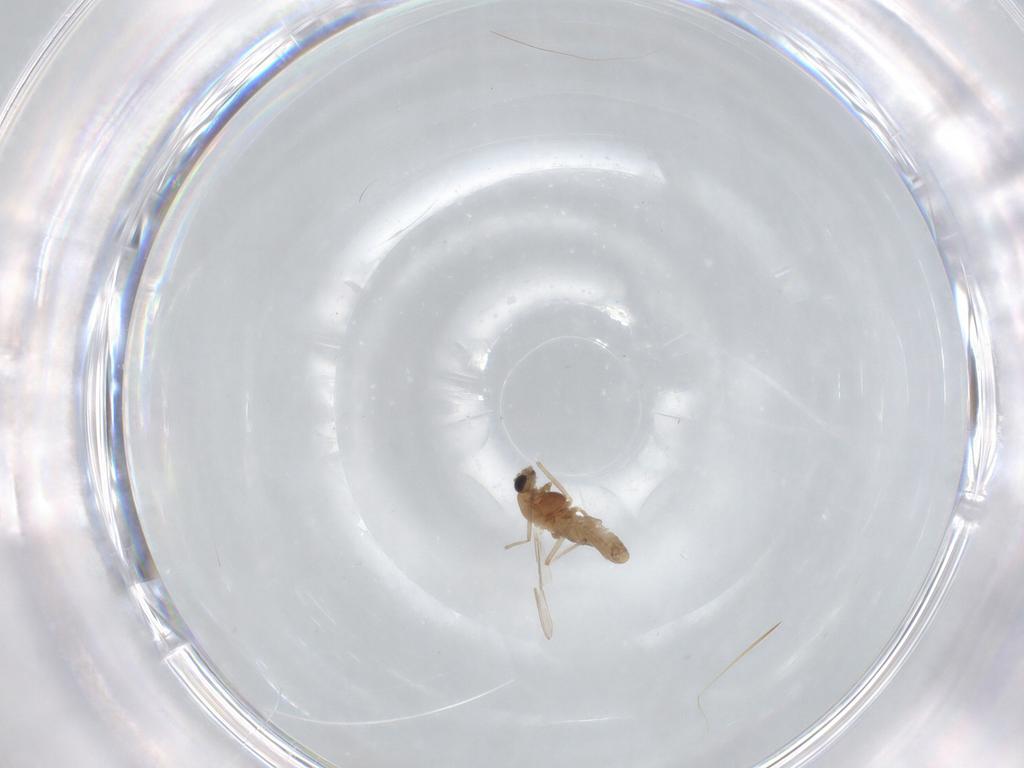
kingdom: Animalia
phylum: Arthropoda
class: Insecta
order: Diptera
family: Chironomidae
